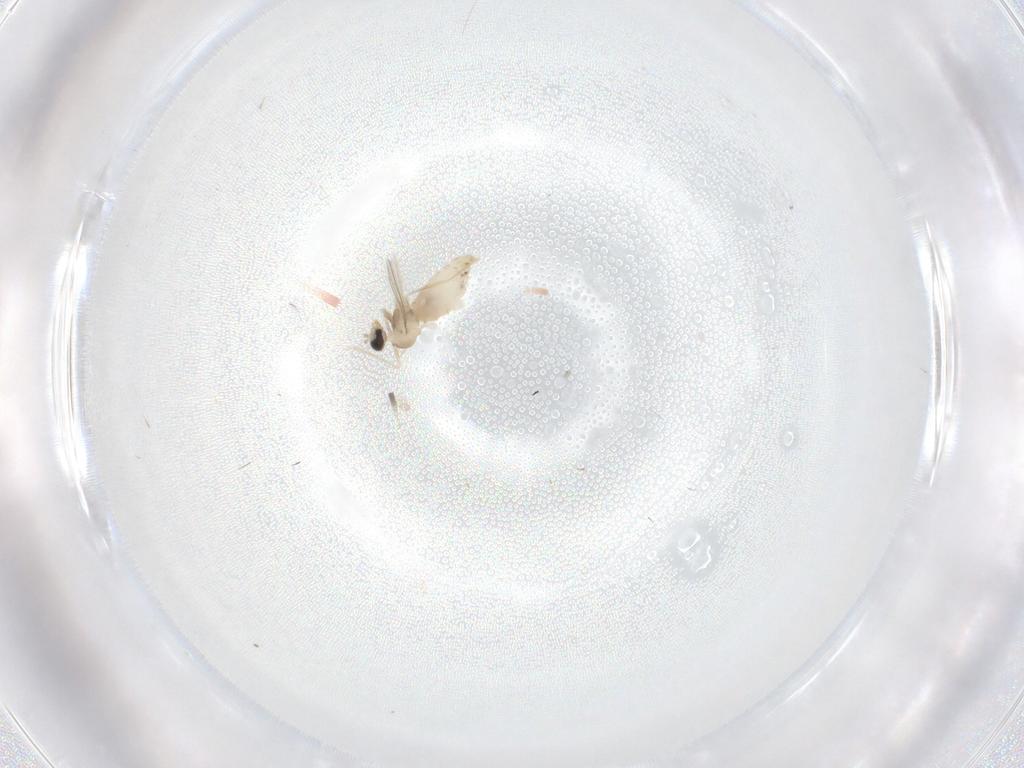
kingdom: Animalia
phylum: Arthropoda
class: Insecta
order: Diptera
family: Cecidomyiidae
